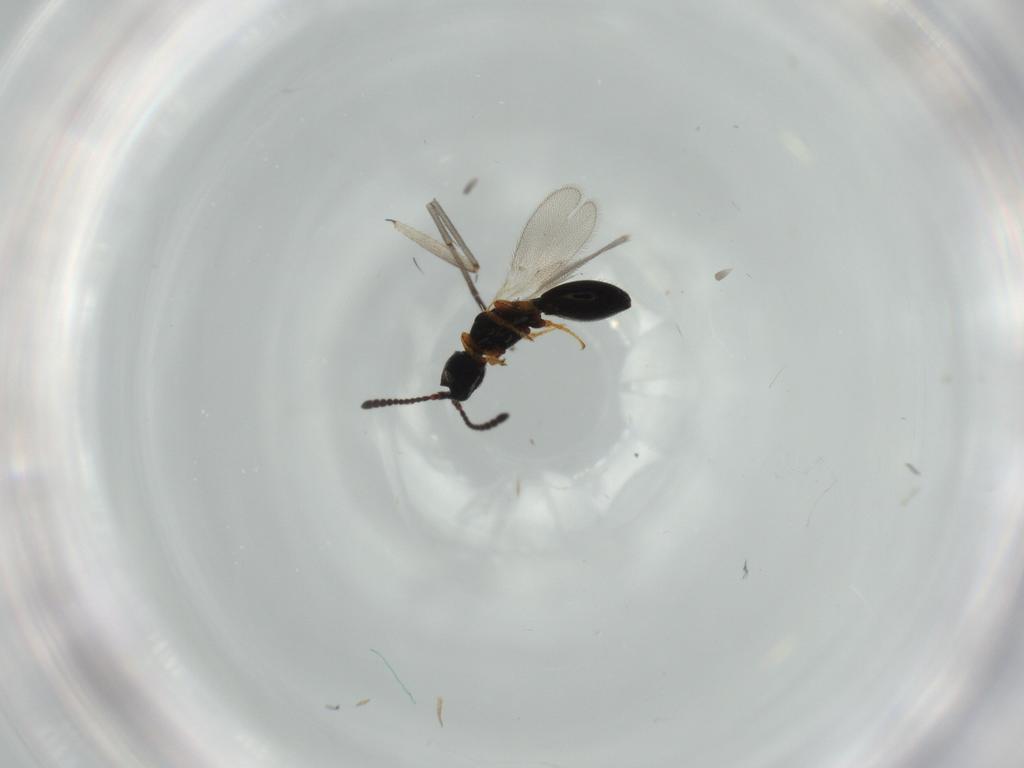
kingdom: Animalia
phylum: Arthropoda
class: Insecta
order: Hymenoptera
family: Diapriidae
